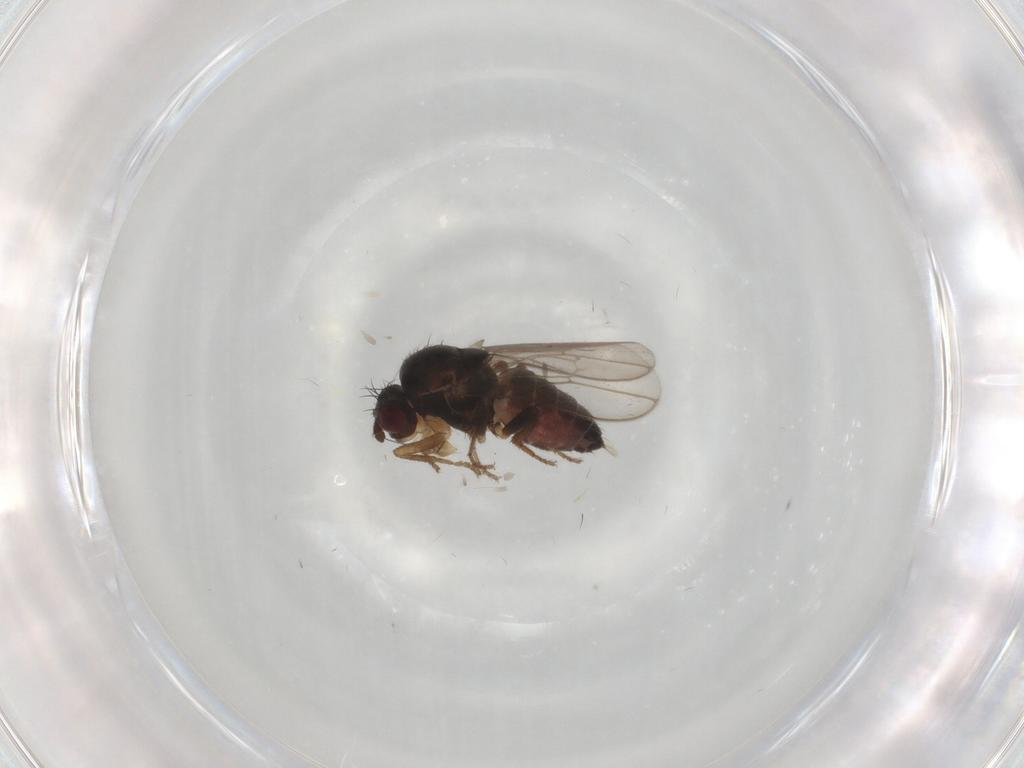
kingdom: Animalia
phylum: Arthropoda
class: Insecta
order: Diptera
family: Sphaeroceridae
